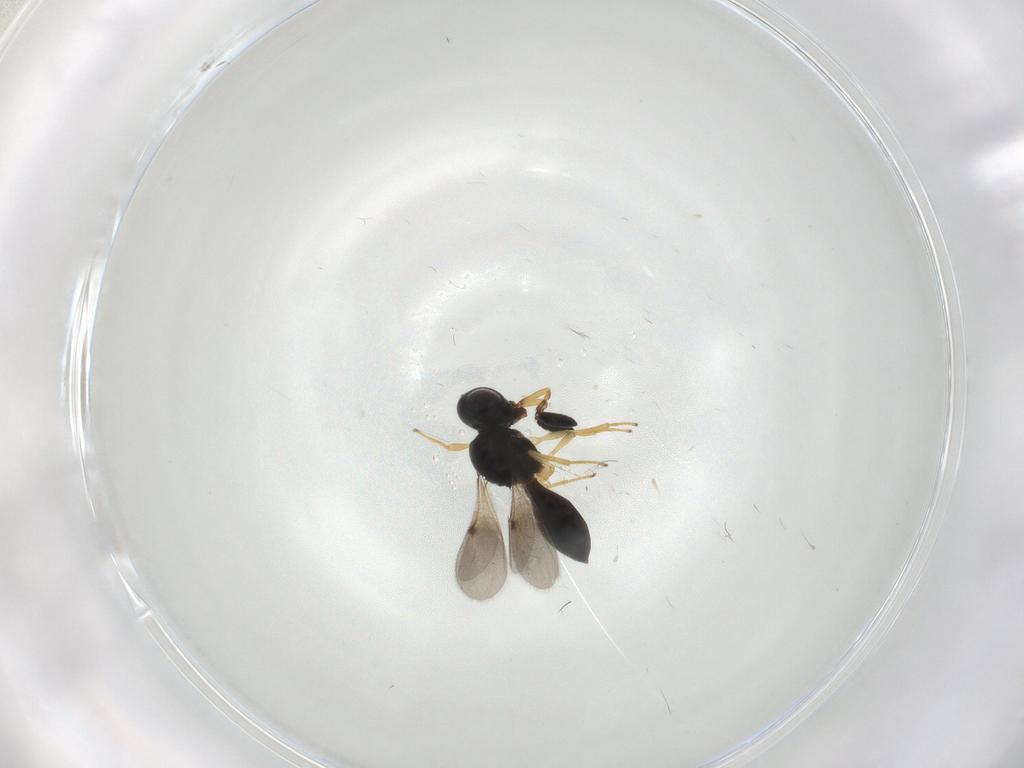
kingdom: Animalia
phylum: Arthropoda
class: Insecta
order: Hymenoptera
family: Scelionidae
